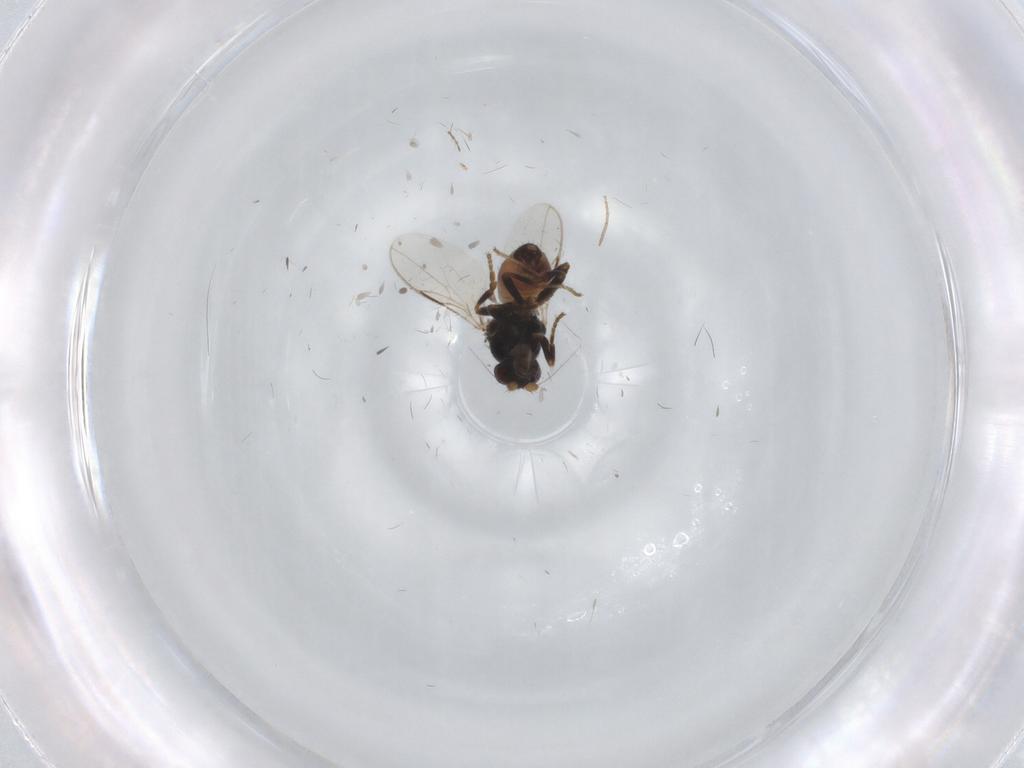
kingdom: Animalia
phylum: Arthropoda
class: Insecta
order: Diptera
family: Sphaeroceridae
